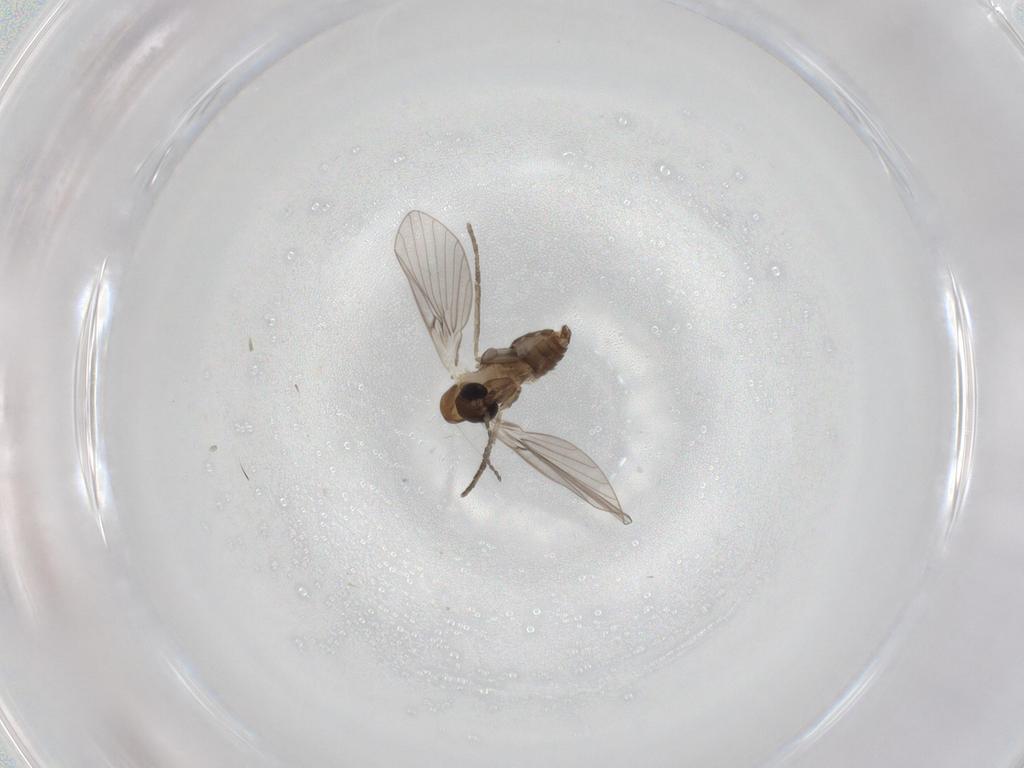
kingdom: Animalia
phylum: Arthropoda
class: Insecta
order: Diptera
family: Psychodidae
